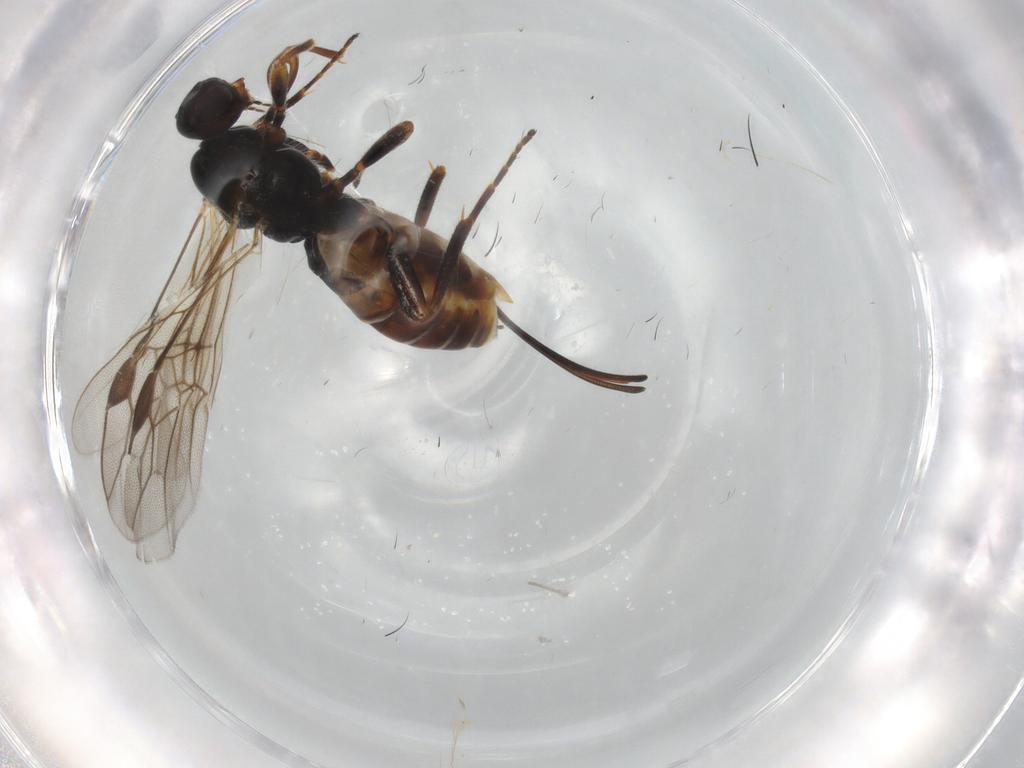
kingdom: Animalia
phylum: Arthropoda
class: Insecta
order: Hymenoptera
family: Braconidae
